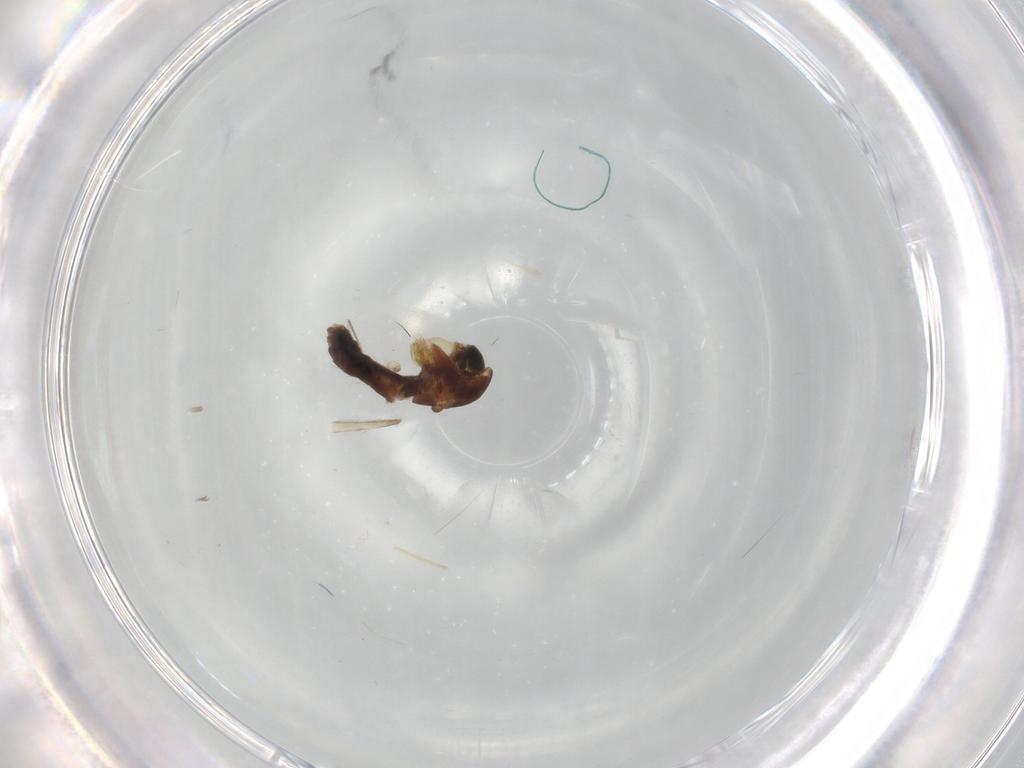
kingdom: Animalia
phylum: Arthropoda
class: Insecta
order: Diptera
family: Chironomidae
